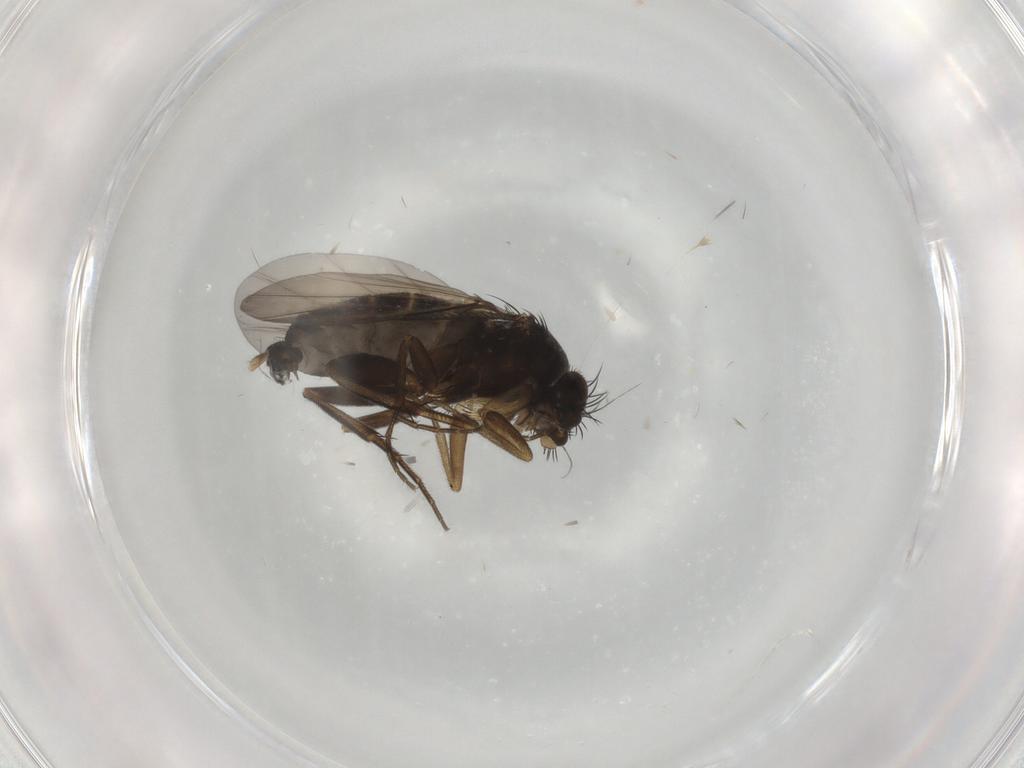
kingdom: Animalia
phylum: Arthropoda
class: Insecta
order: Diptera
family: Phoridae
